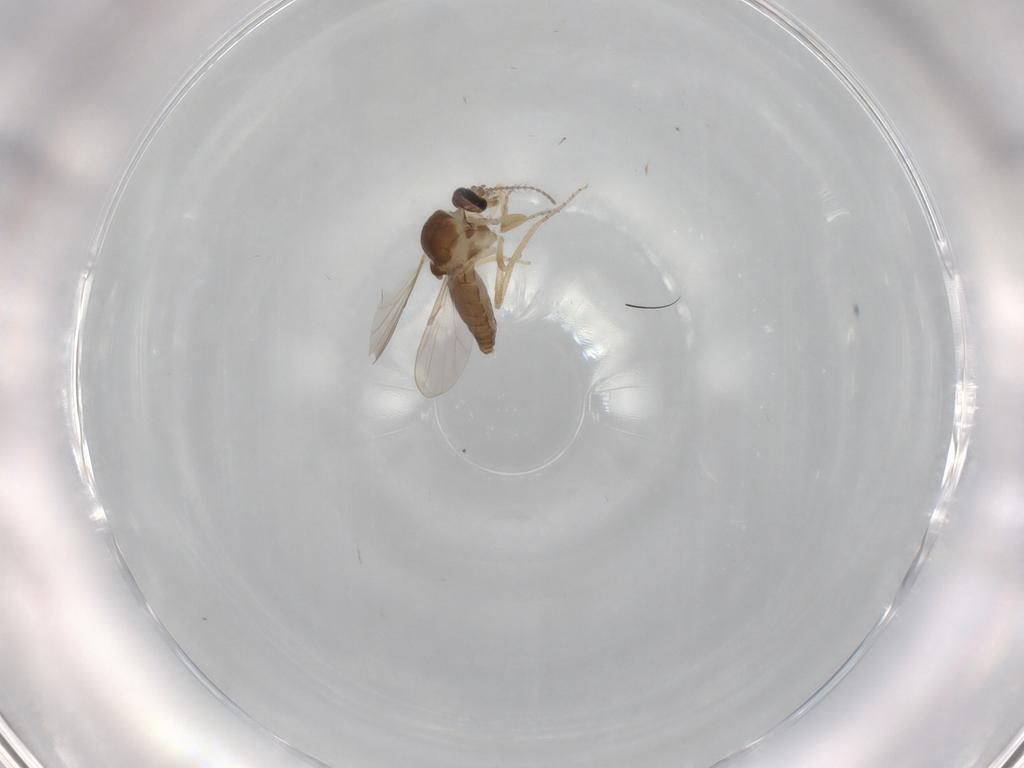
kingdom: Animalia
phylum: Arthropoda
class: Insecta
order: Diptera
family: Ceratopogonidae
